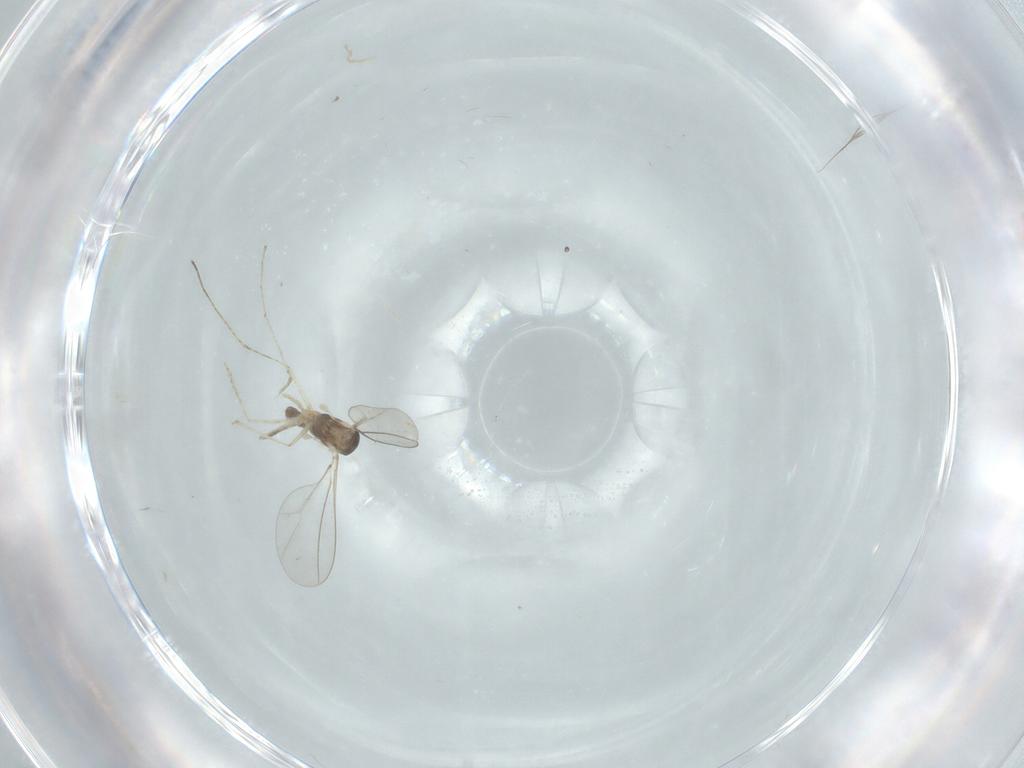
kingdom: Animalia
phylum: Arthropoda
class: Insecta
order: Diptera
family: Cecidomyiidae
